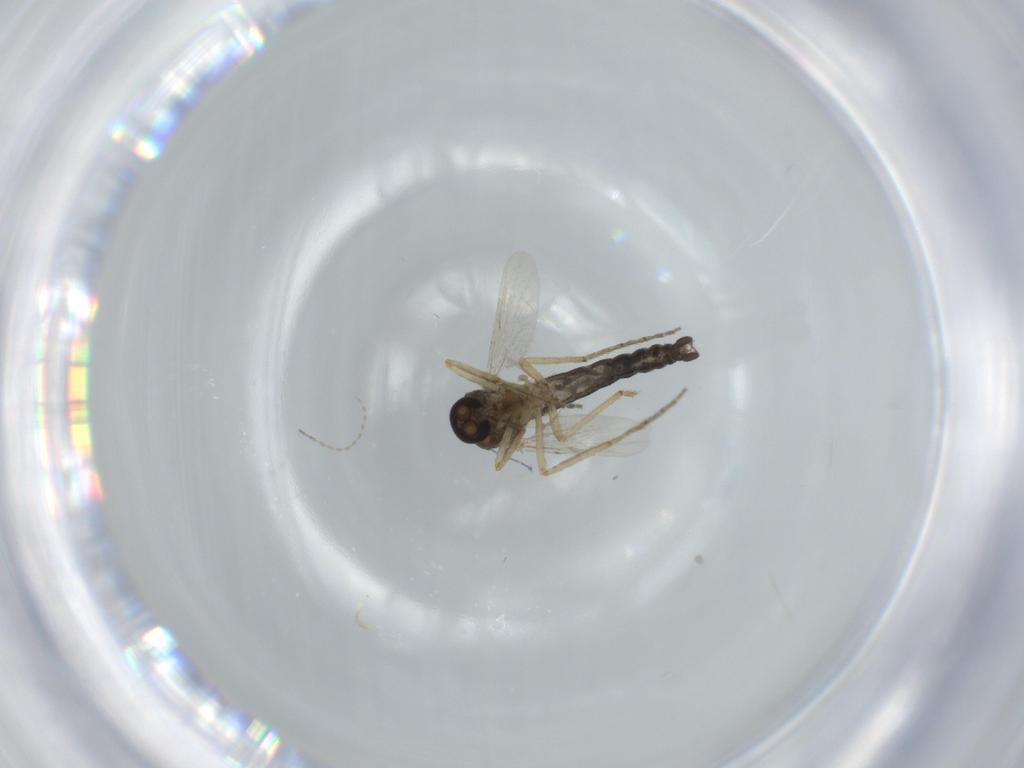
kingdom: Animalia
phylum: Arthropoda
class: Insecta
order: Diptera
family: Ceratopogonidae
